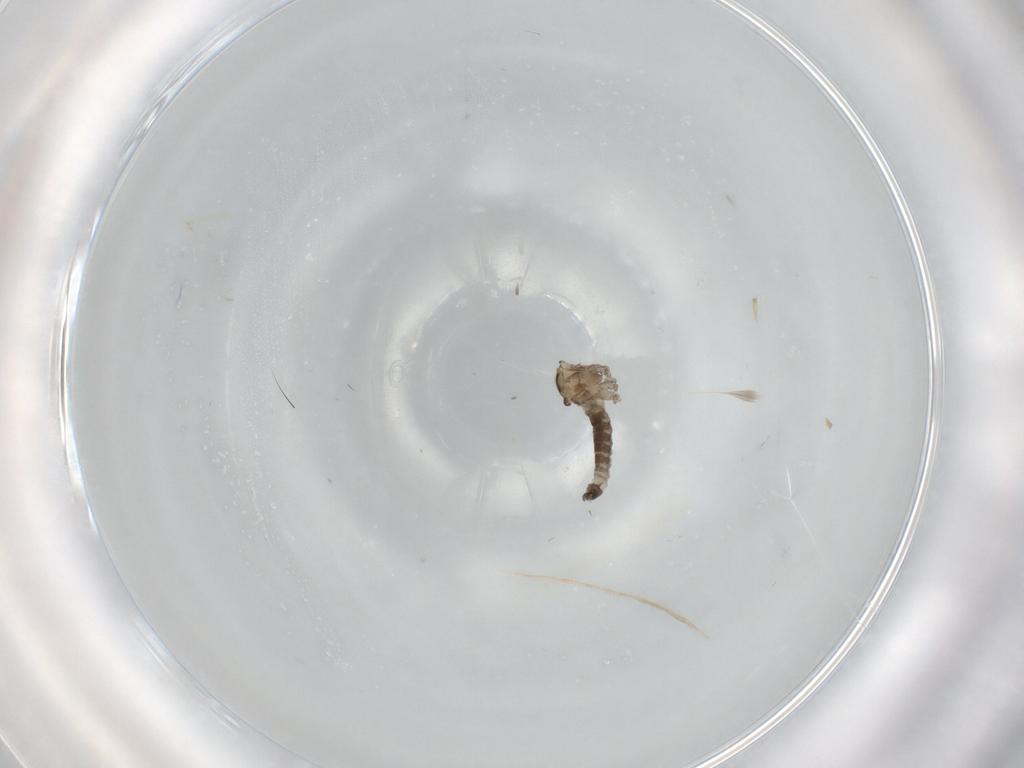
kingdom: Animalia
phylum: Arthropoda
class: Insecta
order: Diptera
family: Cecidomyiidae
